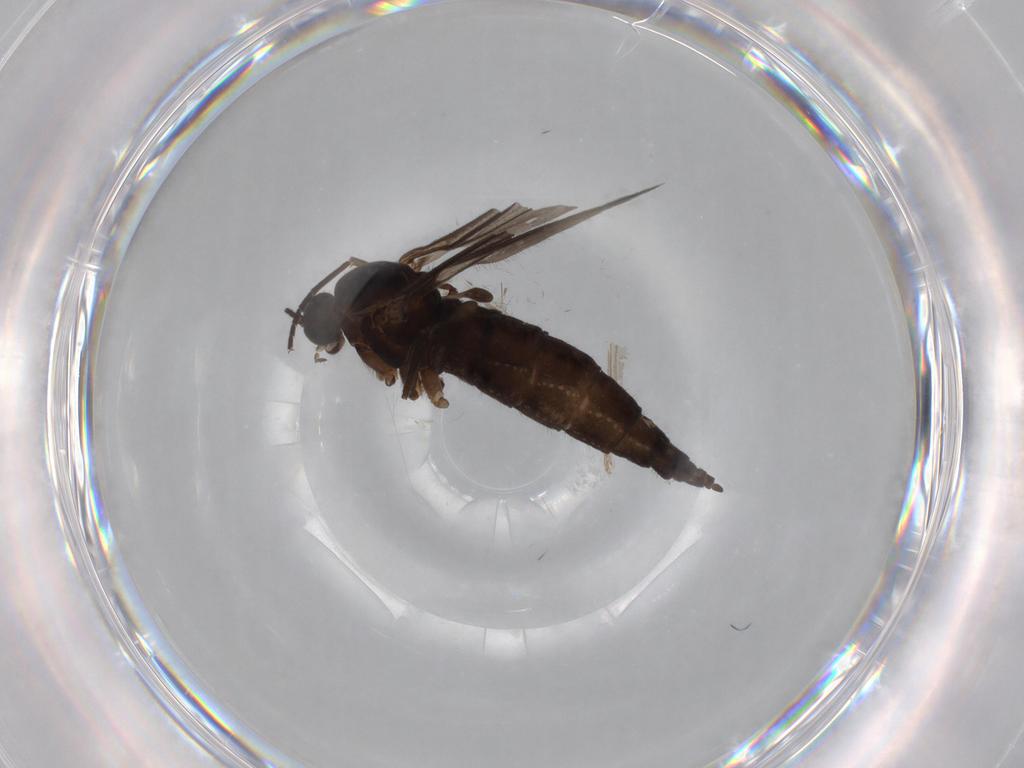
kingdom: Animalia
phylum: Arthropoda
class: Insecta
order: Diptera
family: Sciaridae
